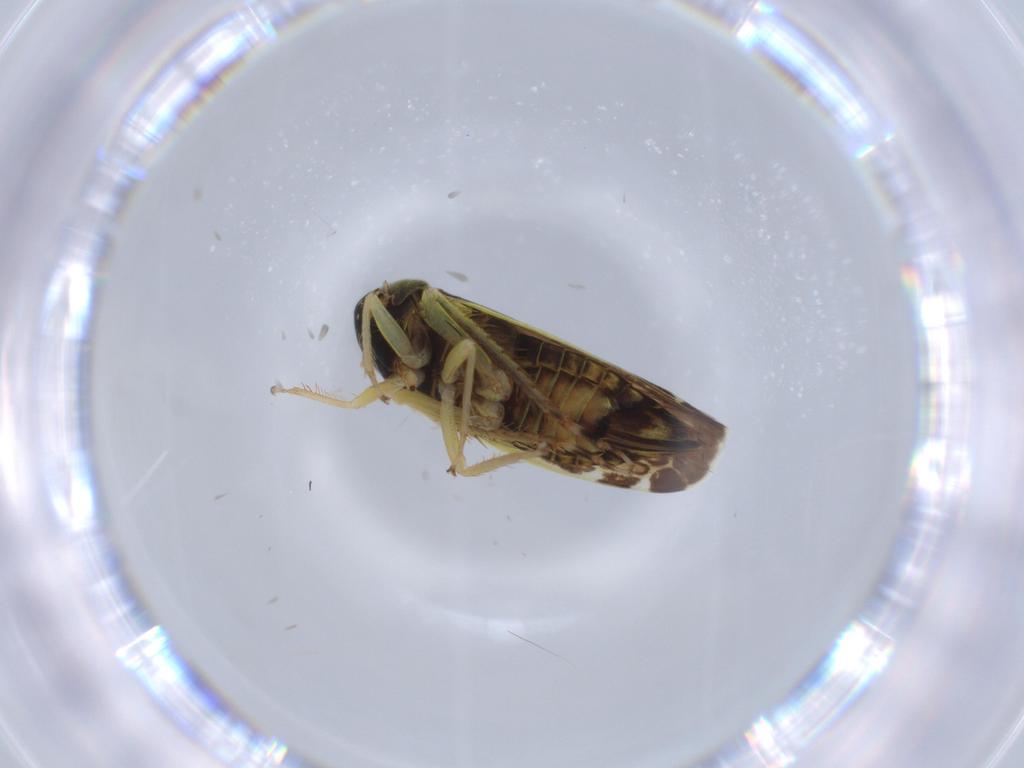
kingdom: Animalia
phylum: Arthropoda
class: Insecta
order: Hemiptera
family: Cicadellidae
